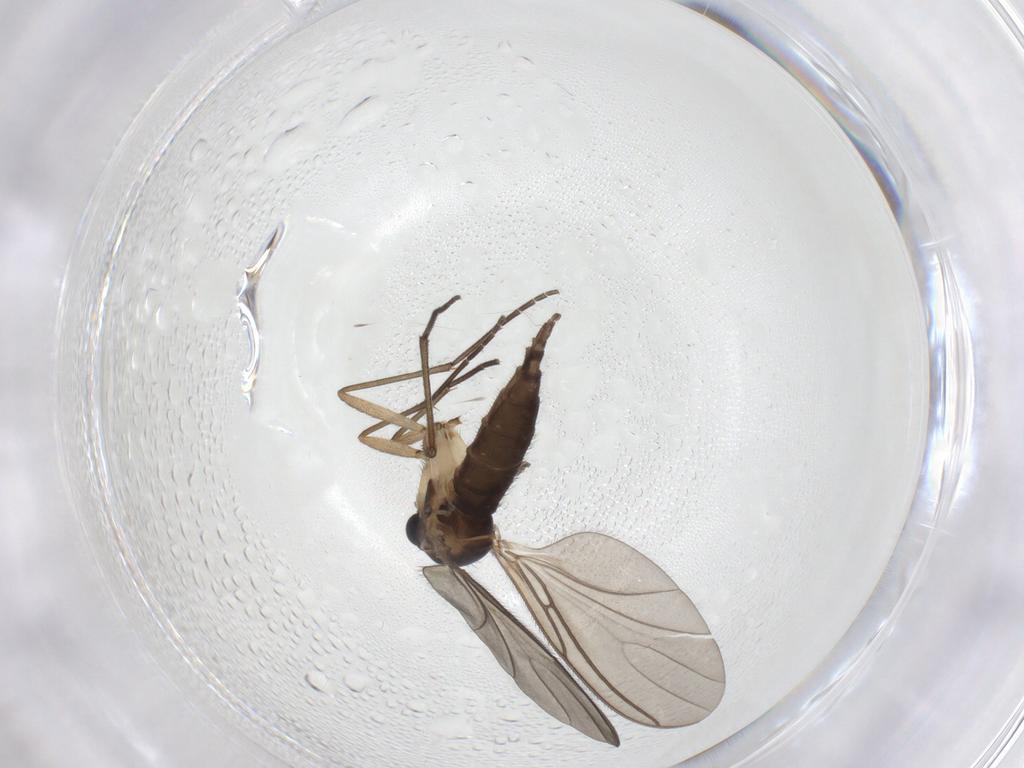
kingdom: Animalia
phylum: Arthropoda
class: Insecta
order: Diptera
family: Sciaridae
